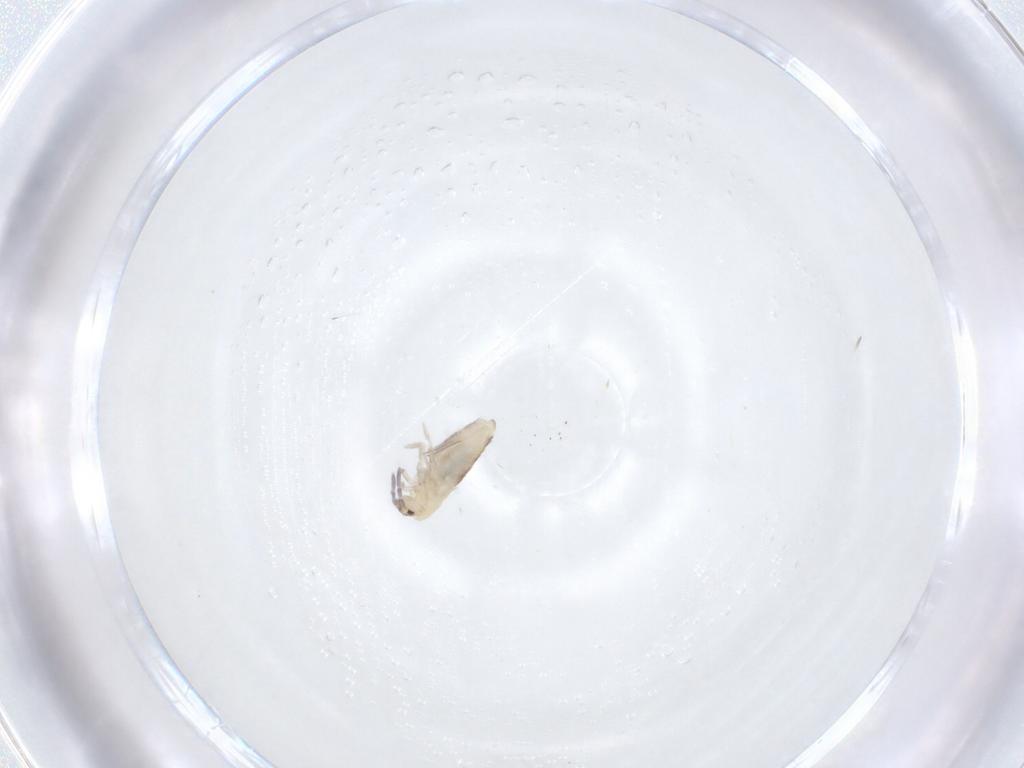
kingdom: Animalia
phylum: Arthropoda
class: Collembola
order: Entomobryomorpha
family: Entomobryidae
